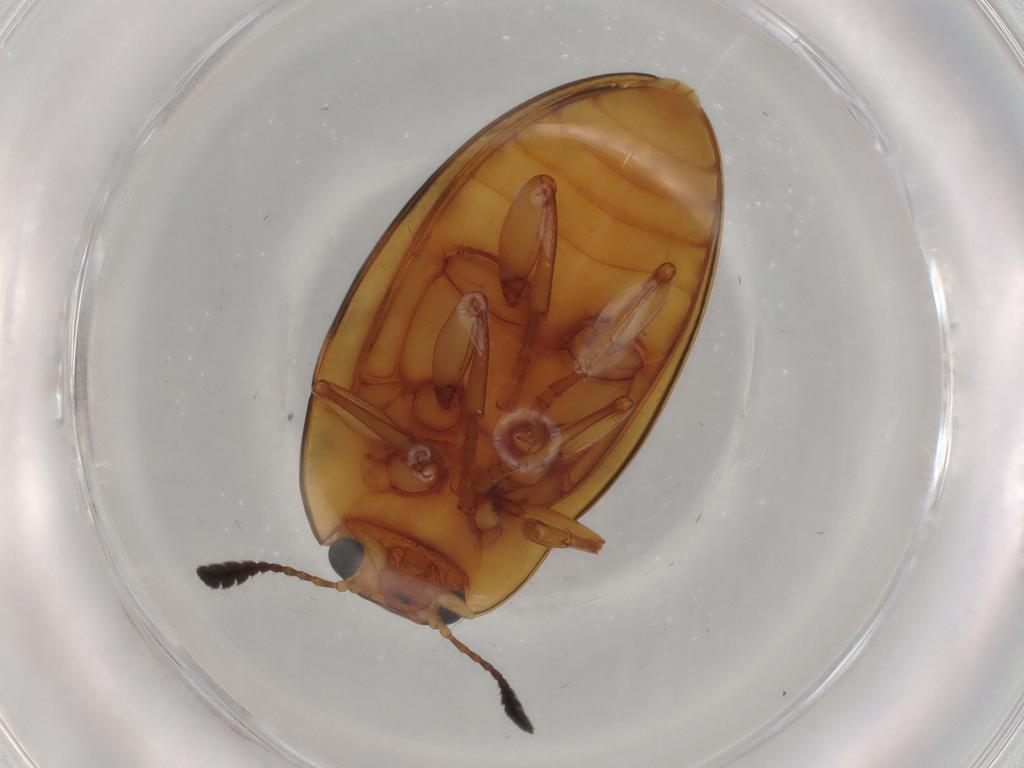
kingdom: Animalia
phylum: Arthropoda
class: Insecta
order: Coleoptera
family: Erotylidae
